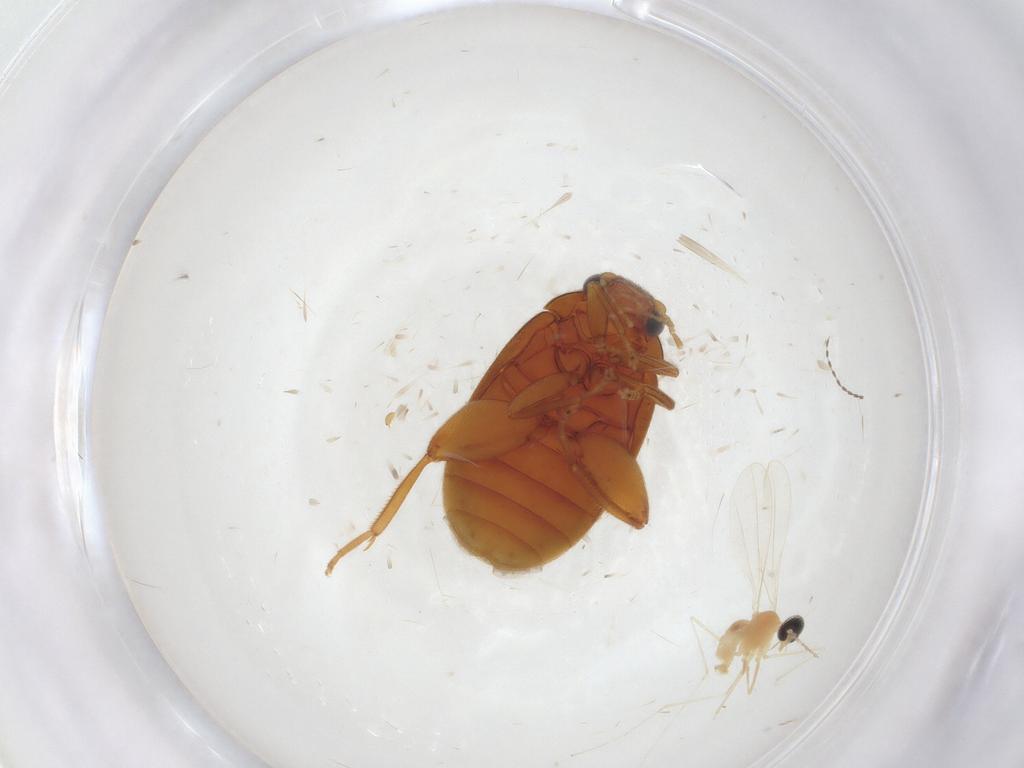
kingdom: Animalia
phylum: Arthropoda
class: Insecta
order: Coleoptera
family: Scirtidae
